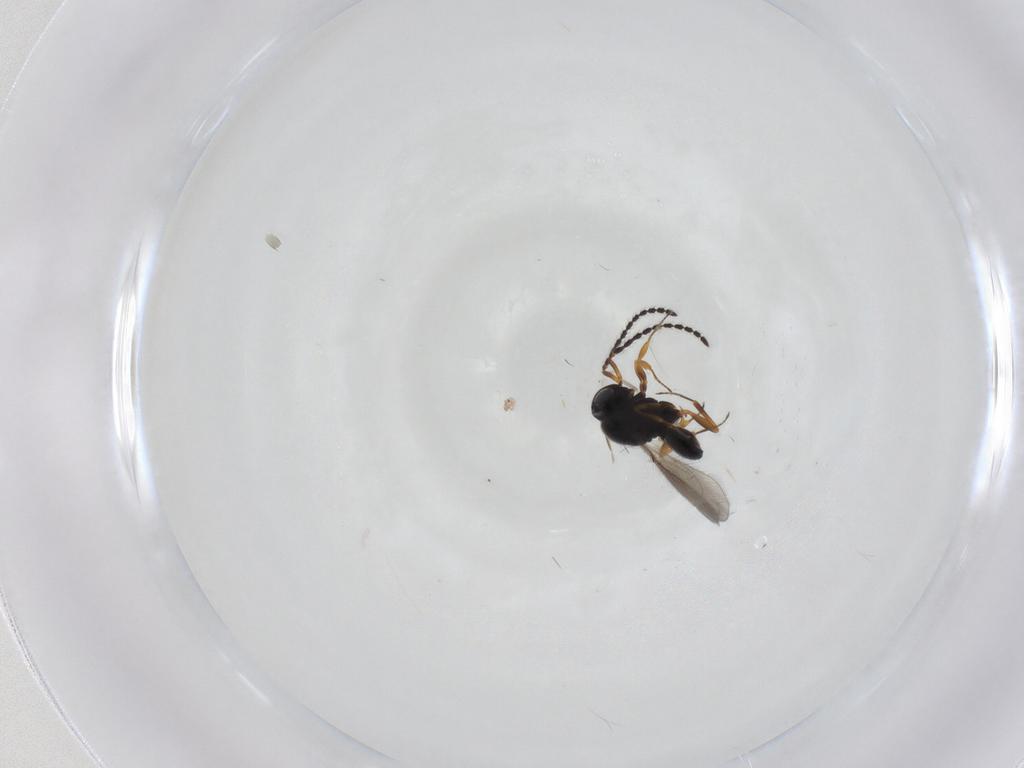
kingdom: Animalia
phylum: Arthropoda
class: Insecta
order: Hymenoptera
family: Scelionidae
